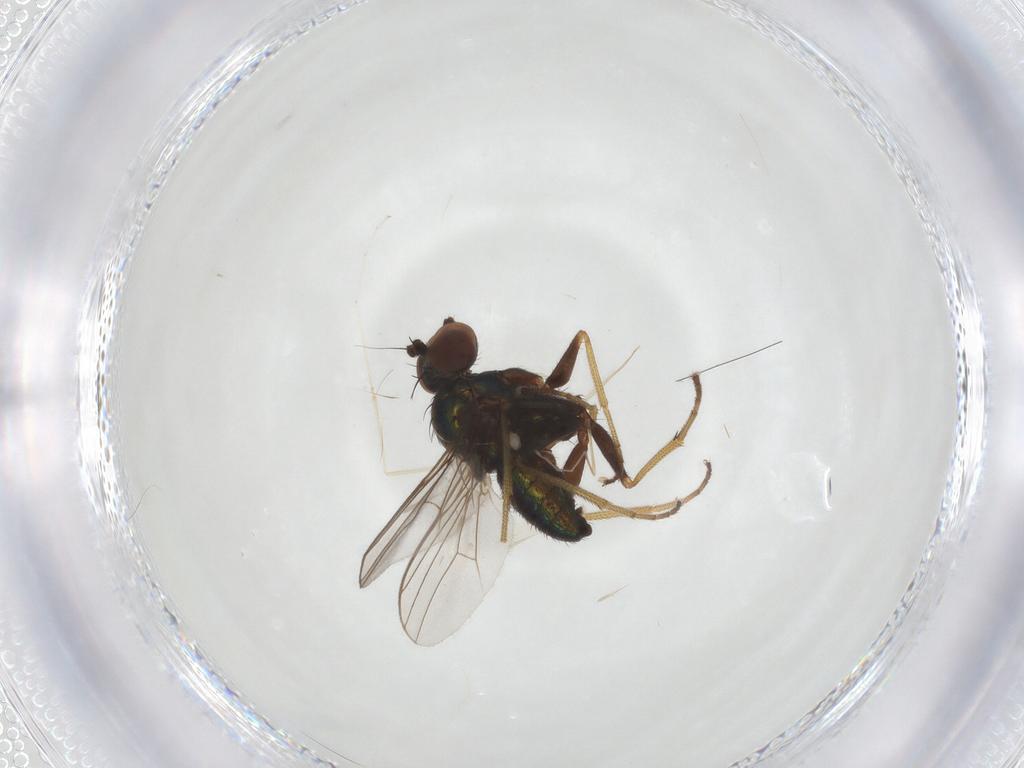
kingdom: Animalia
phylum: Arthropoda
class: Insecta
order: Diptera
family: Dolichopodidae
